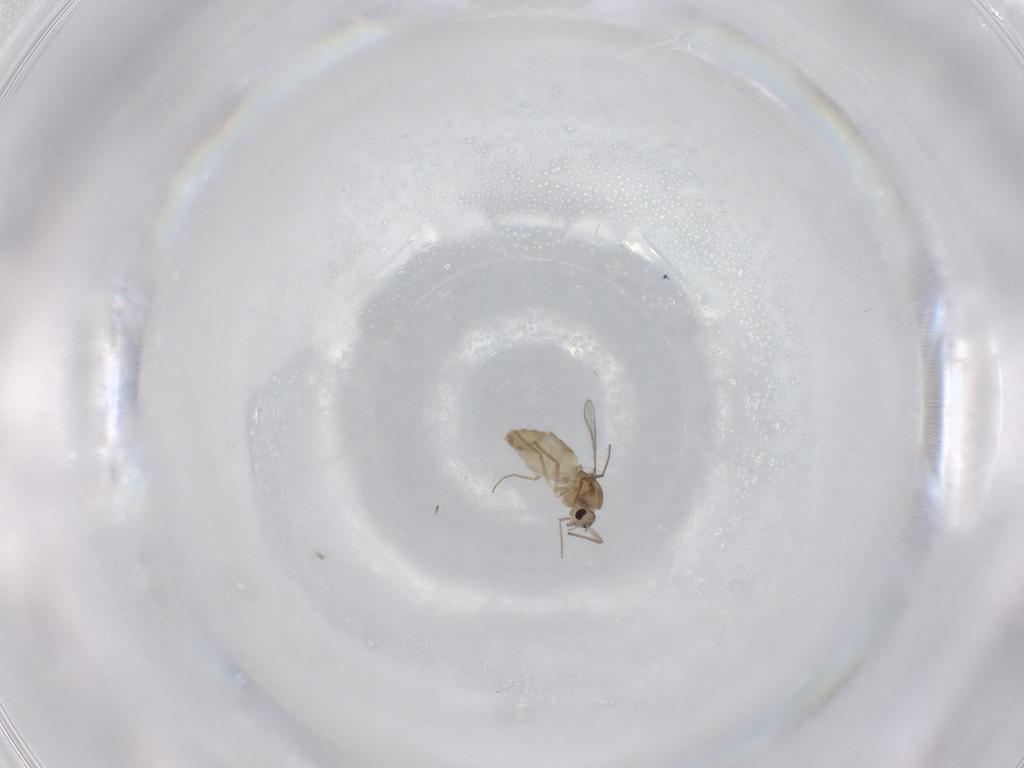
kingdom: Animalia
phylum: Arthropoda
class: Insecta
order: Diptera
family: Chironomidae
